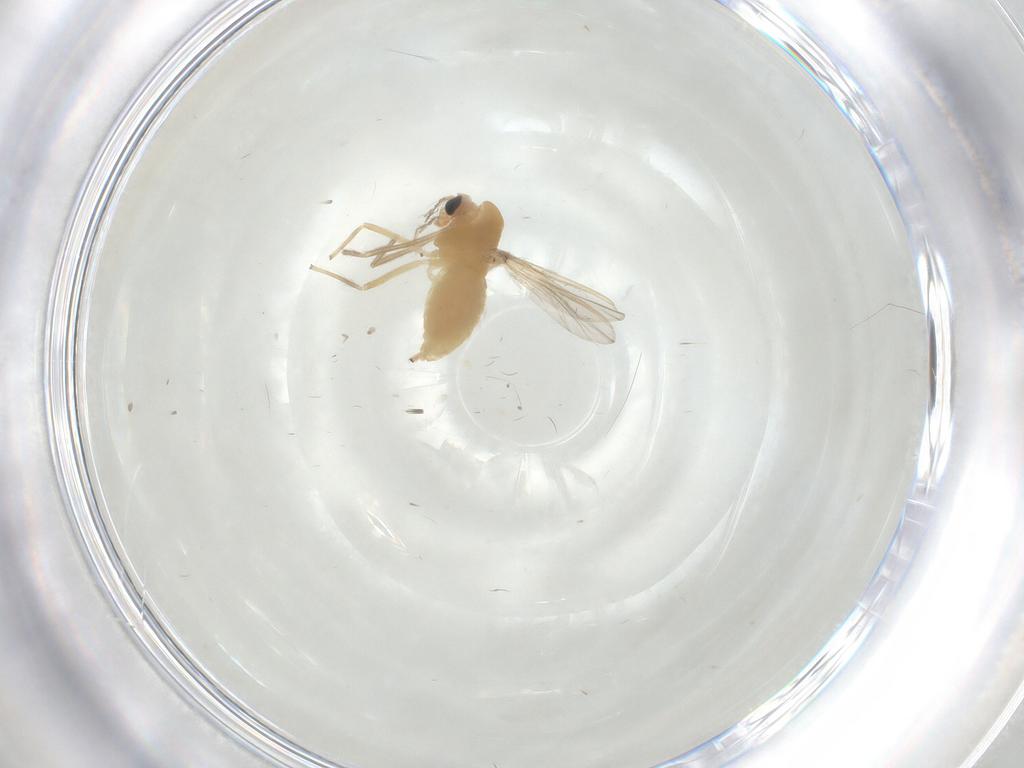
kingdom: Animalia
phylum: Arthropoda
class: Insecta
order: Diptera
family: Chironomidae
